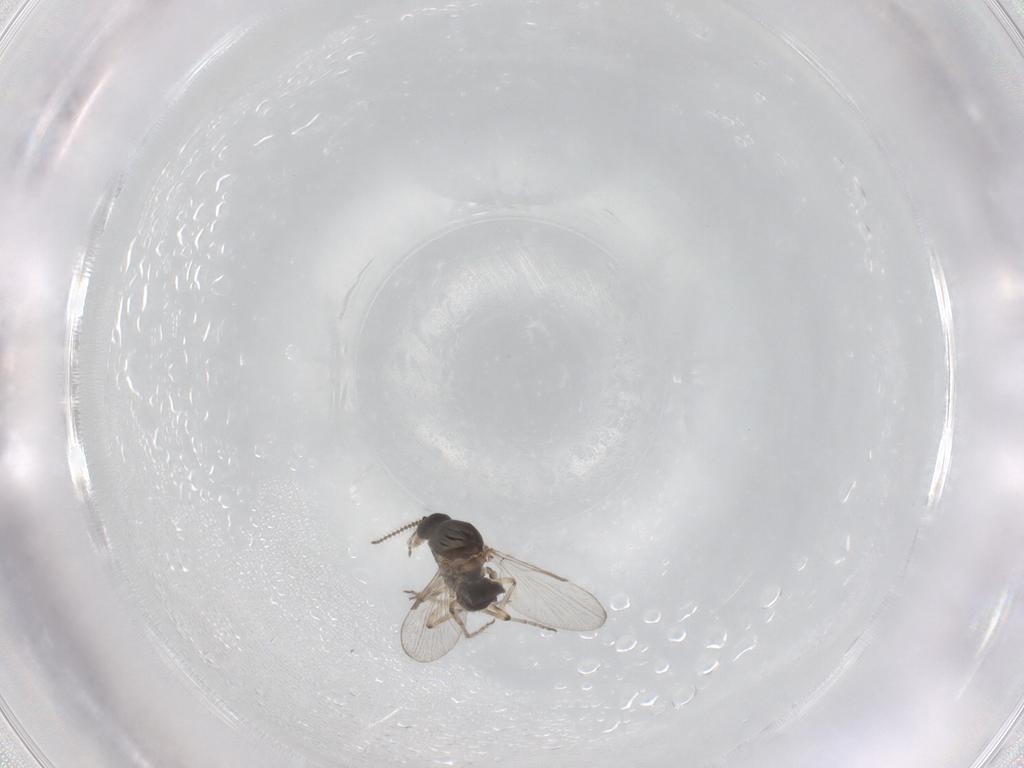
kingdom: Animalia
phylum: Arthropoda
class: Insecta
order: Diptera
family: Ceratopogonidae
